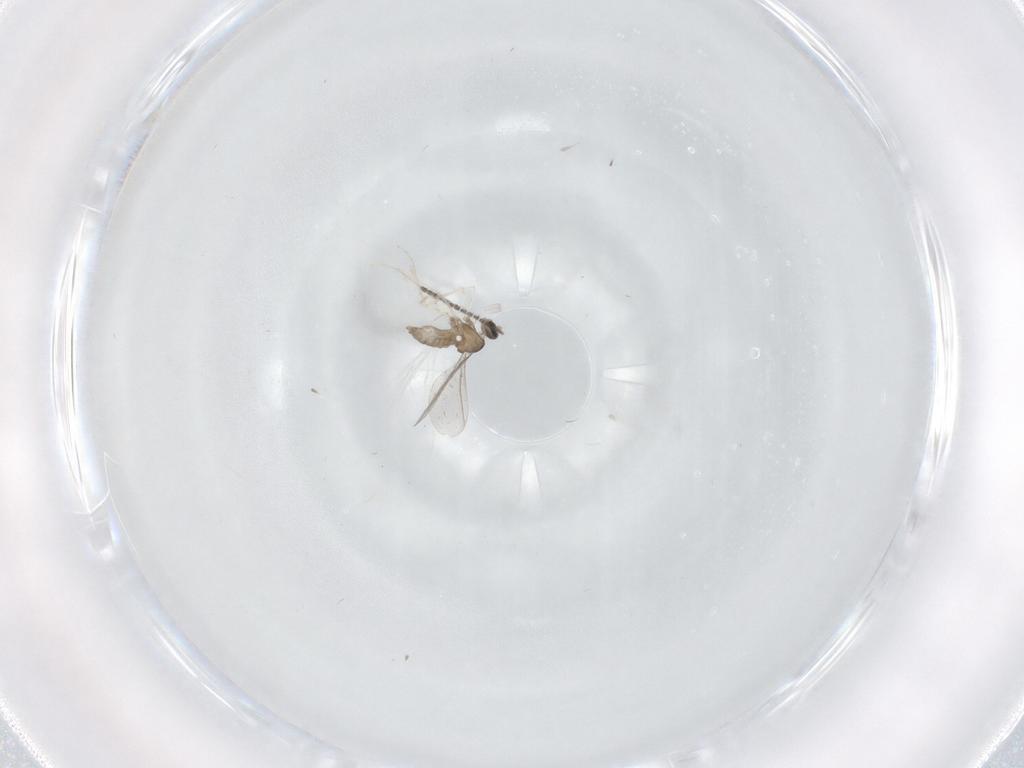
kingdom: Animalia
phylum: Arthropoda
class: Insecta
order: Diptera
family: Cecidomyiidae
